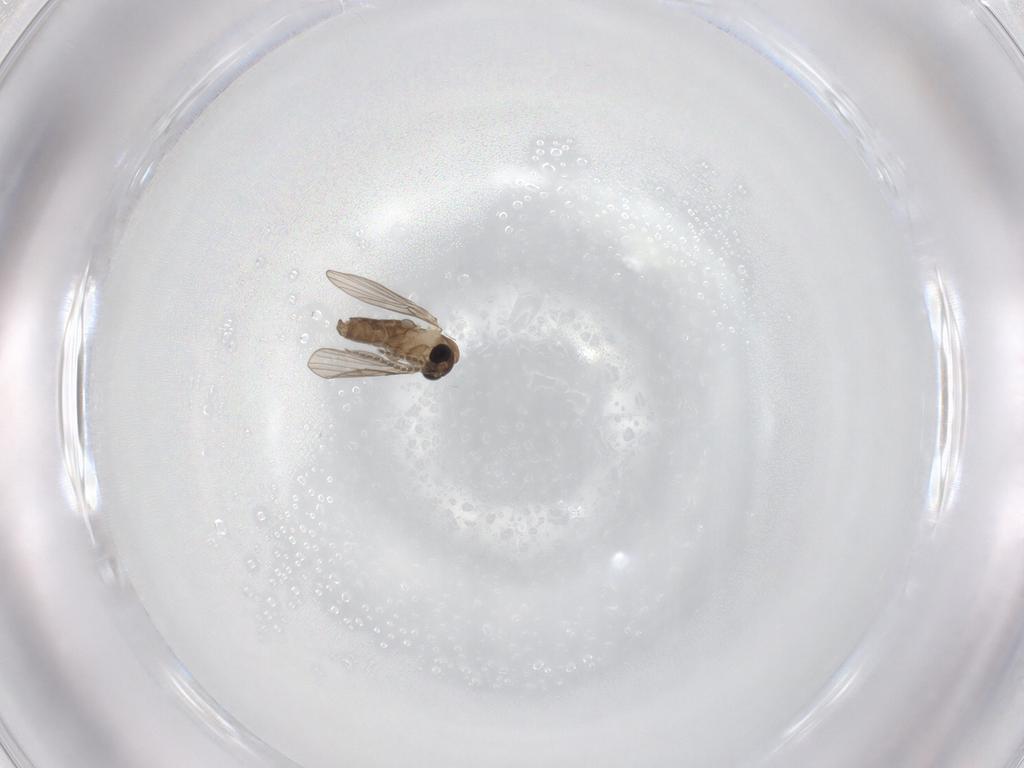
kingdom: Animalia
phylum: Arthropoda
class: Insecta
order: Diptera
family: Psychodidae
